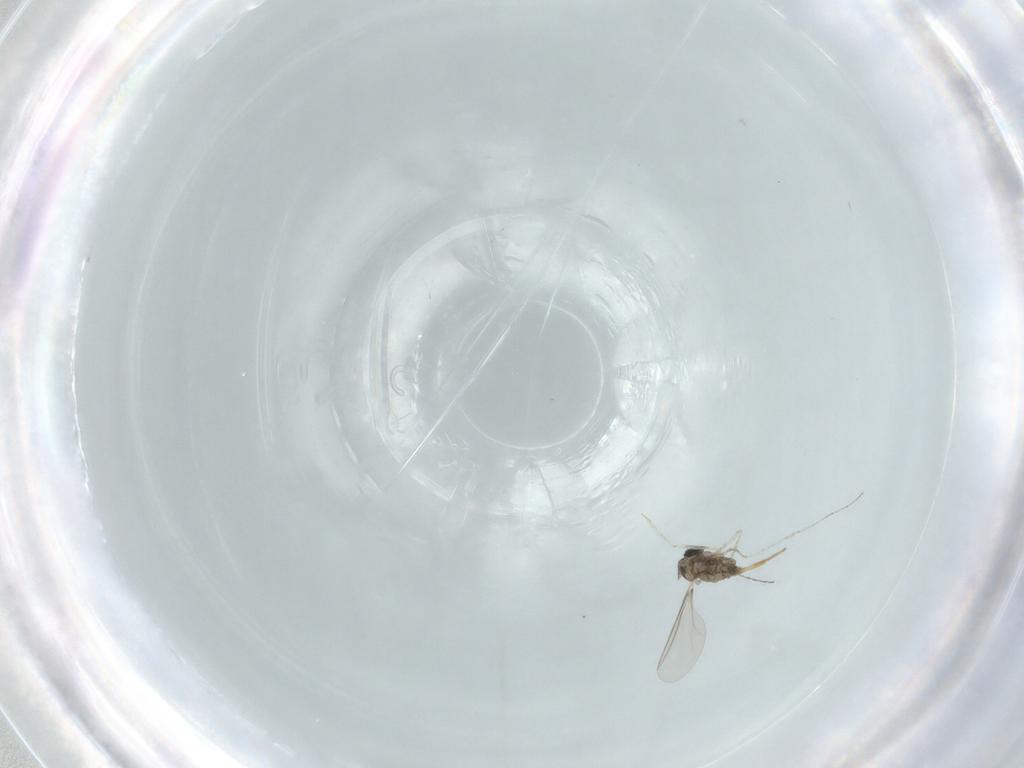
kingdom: Animalia
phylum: Arthropoda
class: Insecta
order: Diptera
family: Cecidomyiidae
